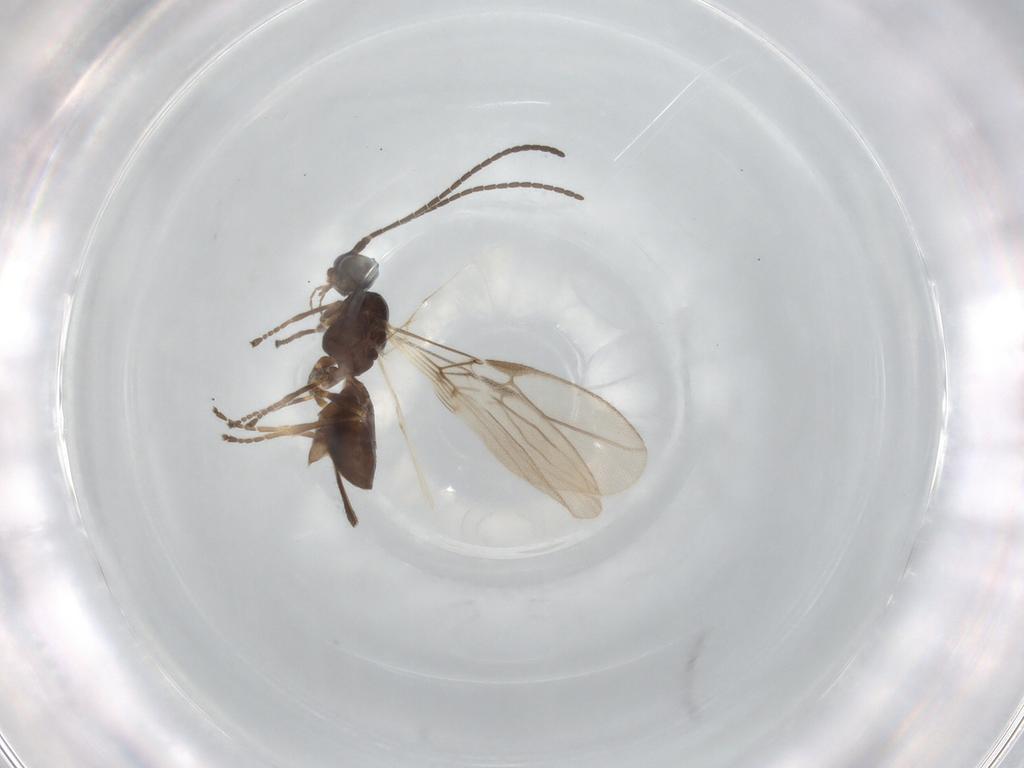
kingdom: Animalia
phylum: Arthropoda
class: Insecta
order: Hymenoptera
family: Braconidae
